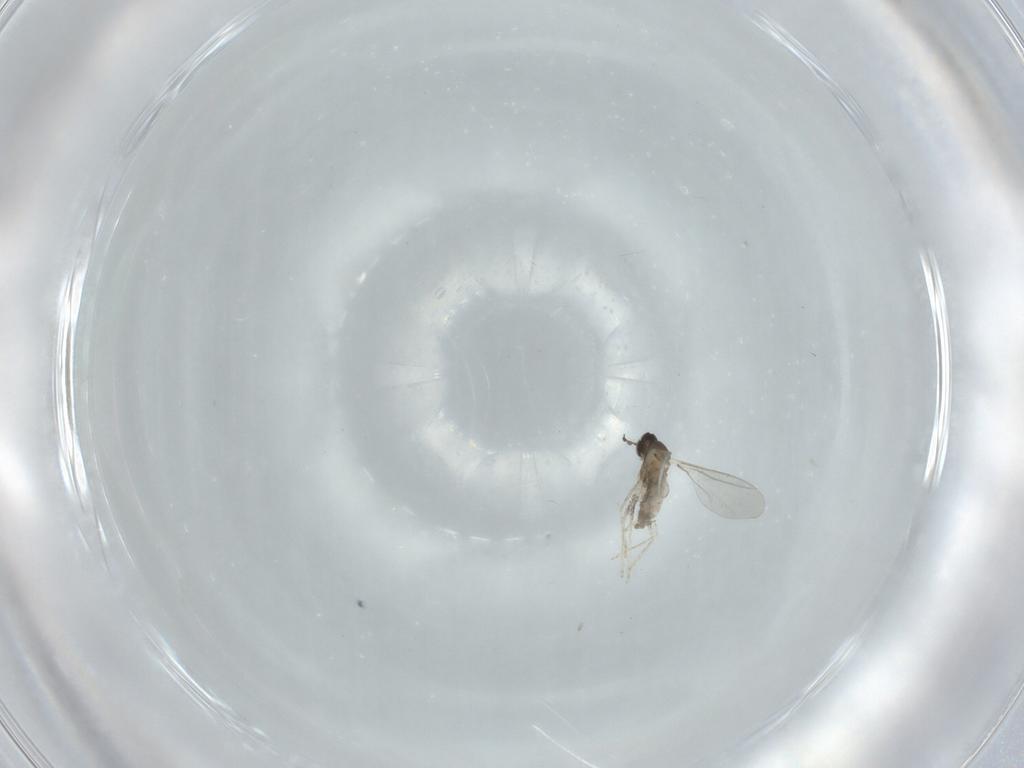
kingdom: Animalia
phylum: Arthropoda
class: Insecta
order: Diptera
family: Cecidomyiidae
